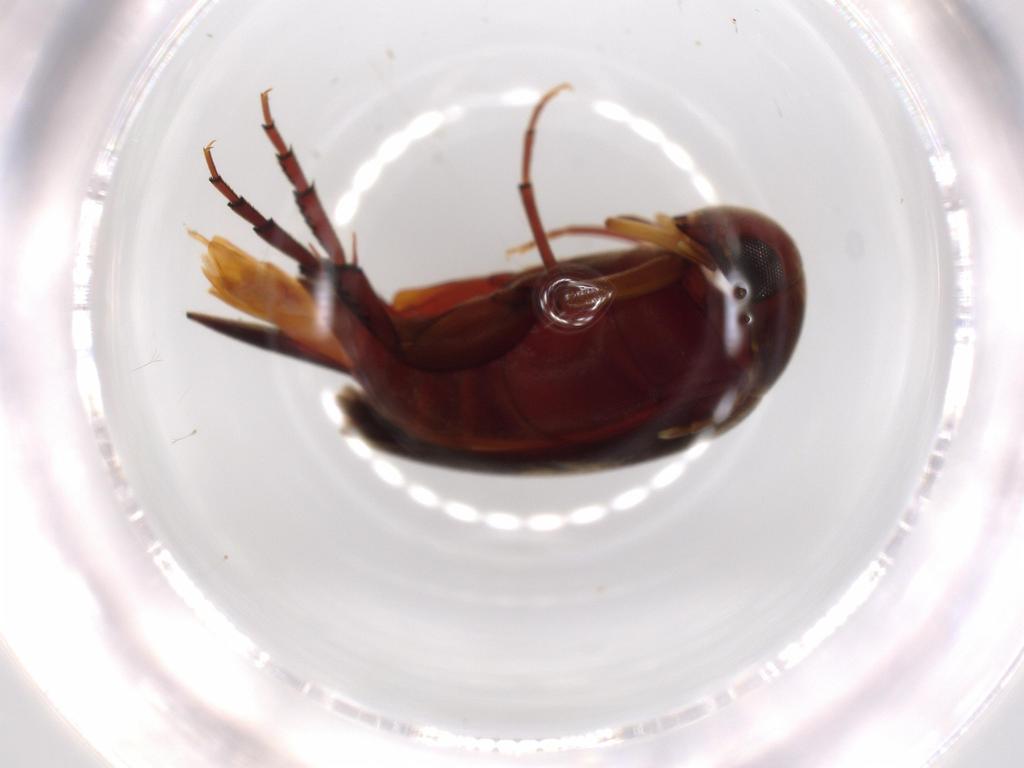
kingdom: Animalia
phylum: Arthropoda
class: Insecta
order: Coleoptera
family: Mordellidae
